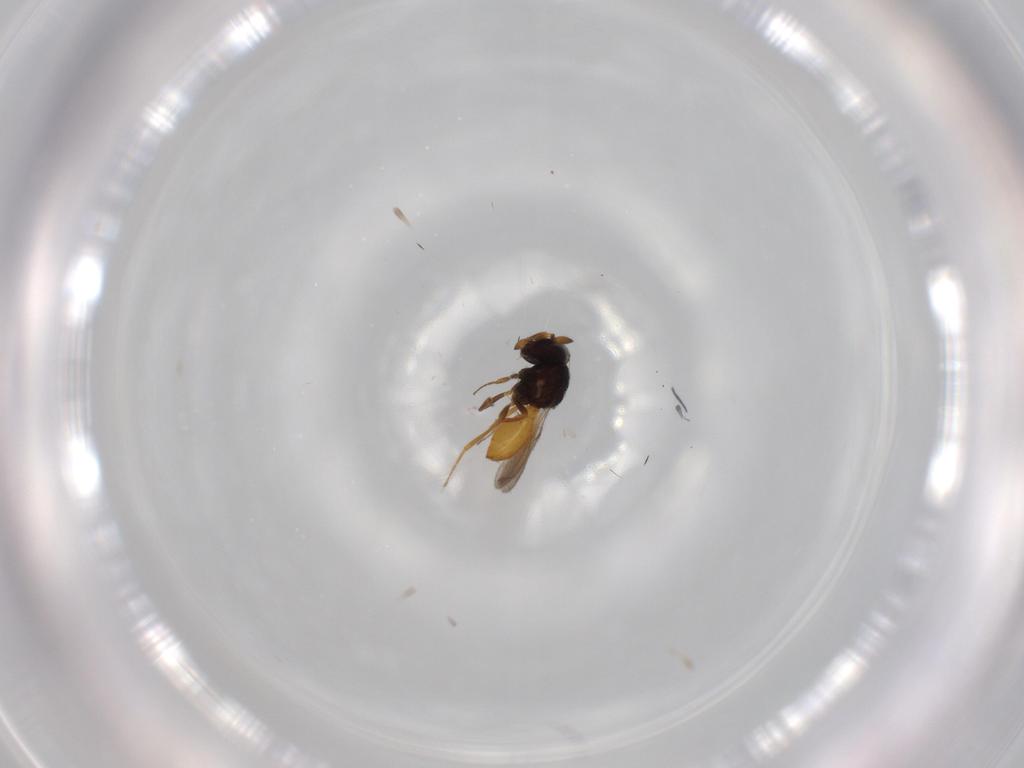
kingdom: Animalia
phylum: Arthropoda
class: Insecta
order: Hymenoptera
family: Scelionidae
